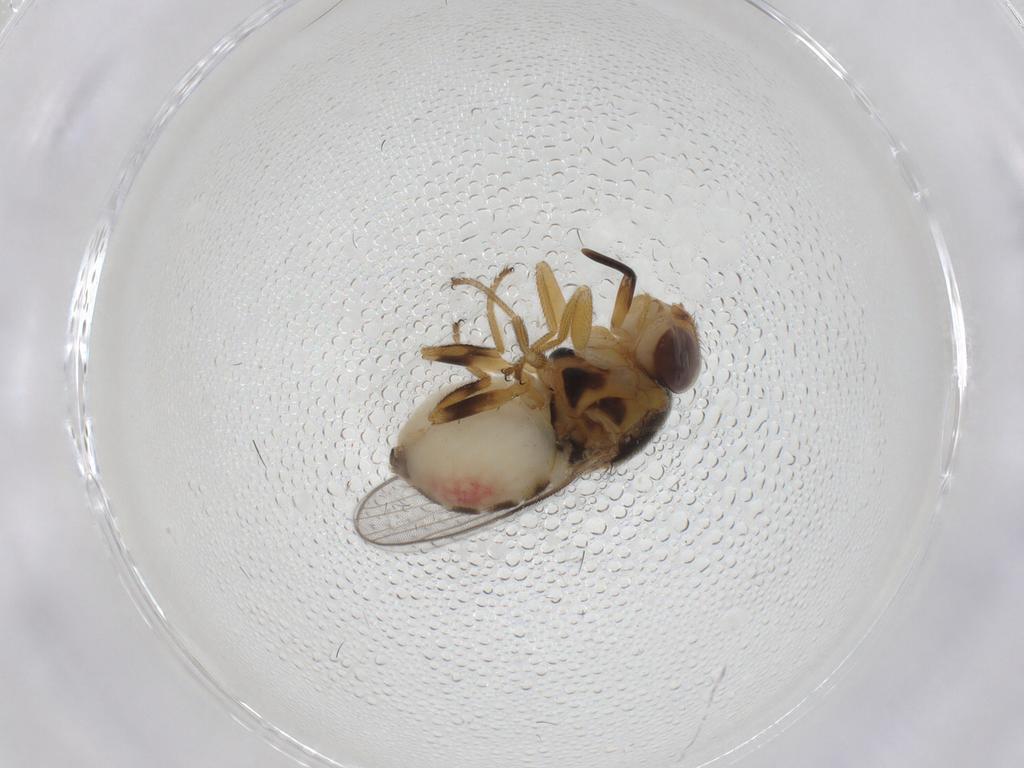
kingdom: Animalia
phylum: Arthropoda
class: Insecta
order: Diptera
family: Chloropidae
